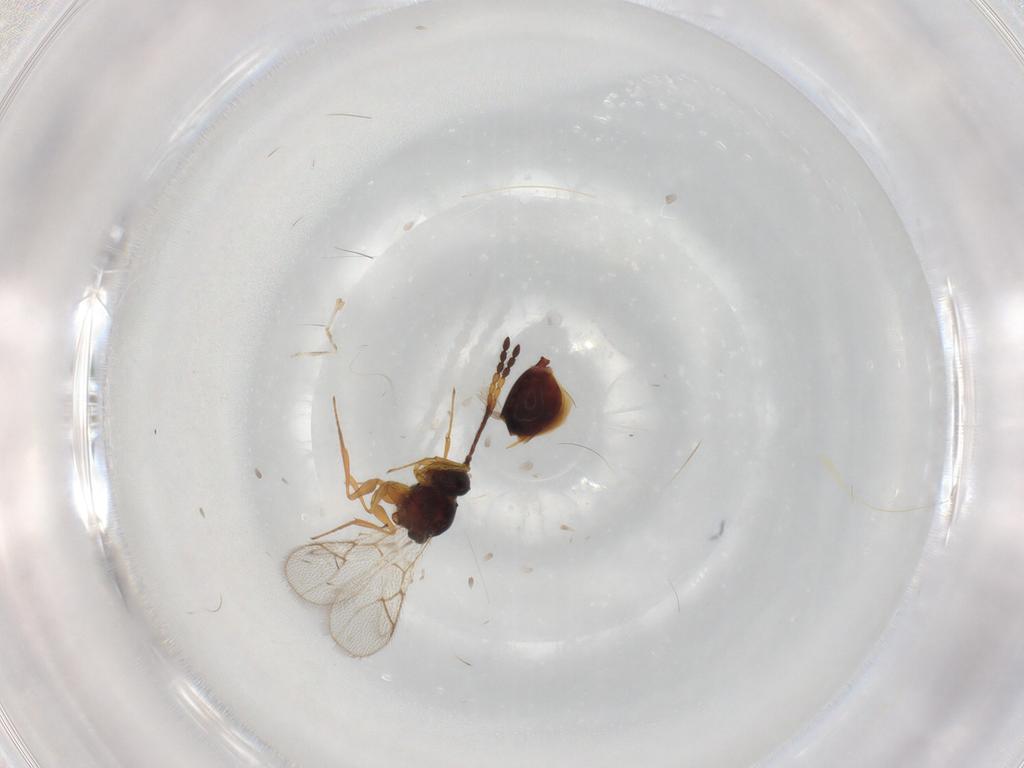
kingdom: Animalia
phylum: Arthropoda
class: Insecta
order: Hymenoptera
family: Figitidae
